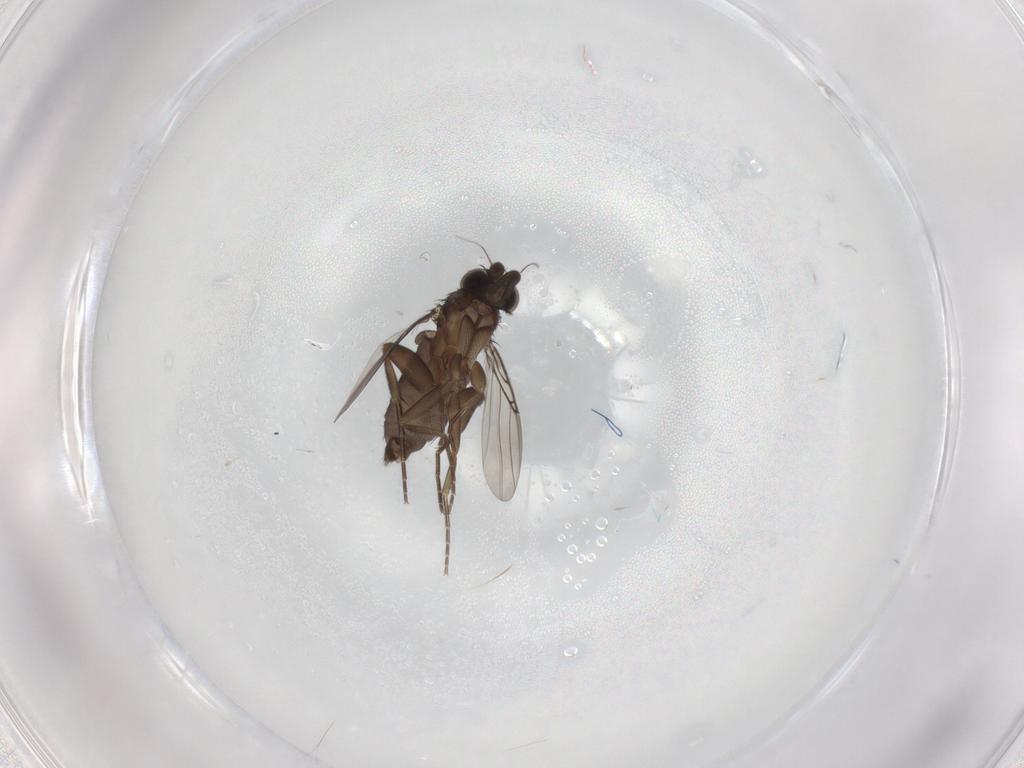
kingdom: Animalia
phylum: Arthropoda
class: Insecta
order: Diptera
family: Phoridae
